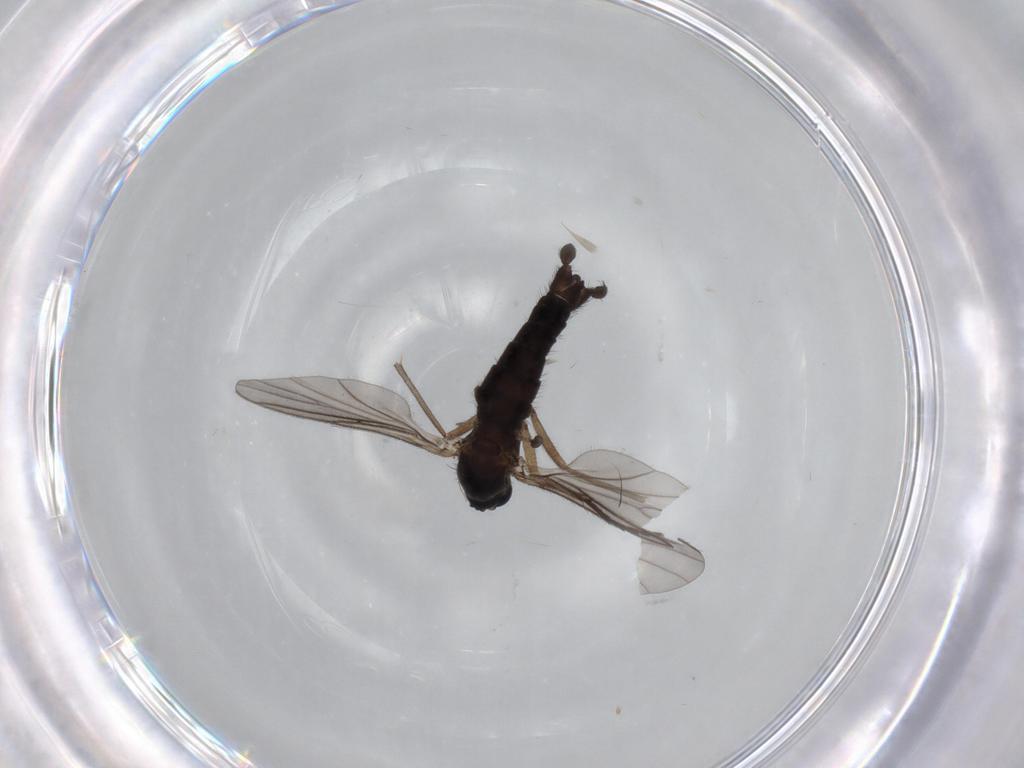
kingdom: Animalia
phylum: Arthropoda
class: Insecta
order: Diptera
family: Sciaridae
